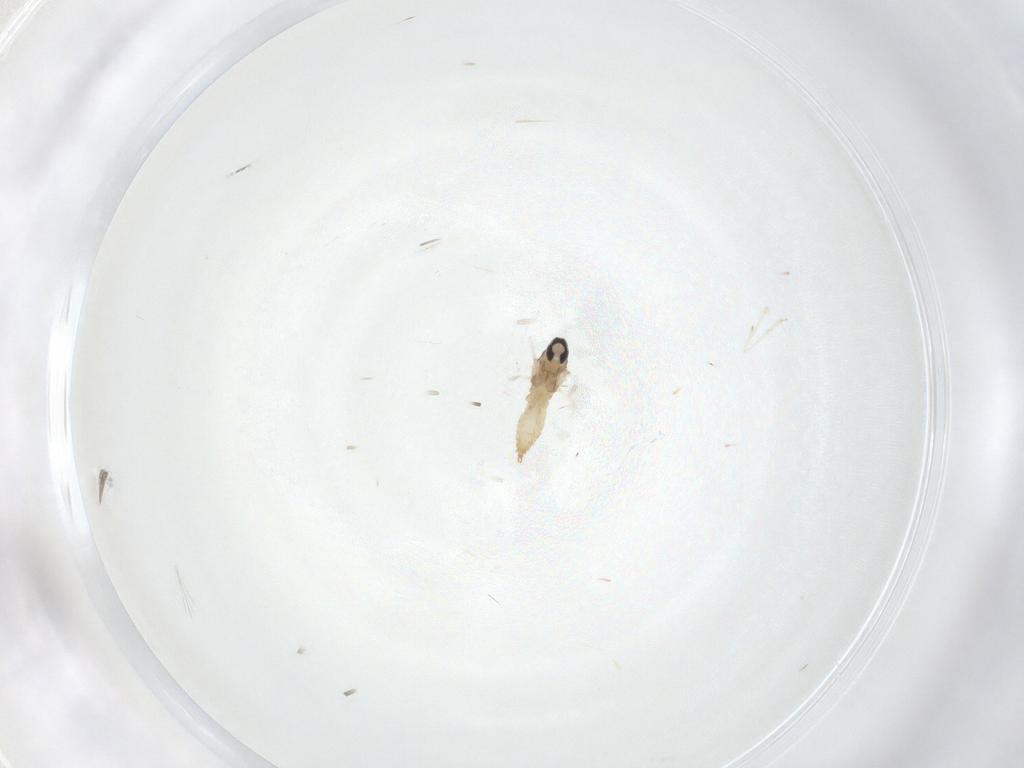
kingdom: Animalia
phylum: Arthropoda
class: Insecta
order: Diptera
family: Cecidomyiidae
